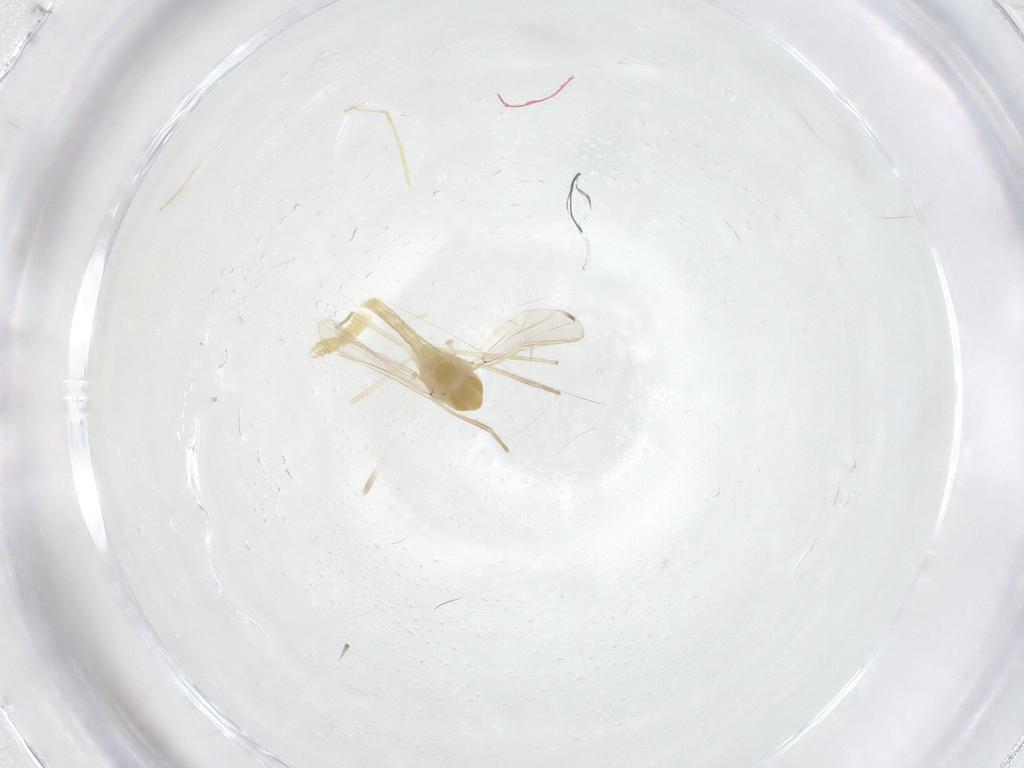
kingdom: Animalia
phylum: Arthropoda
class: Insecta
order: Diptera
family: Chironomidae
